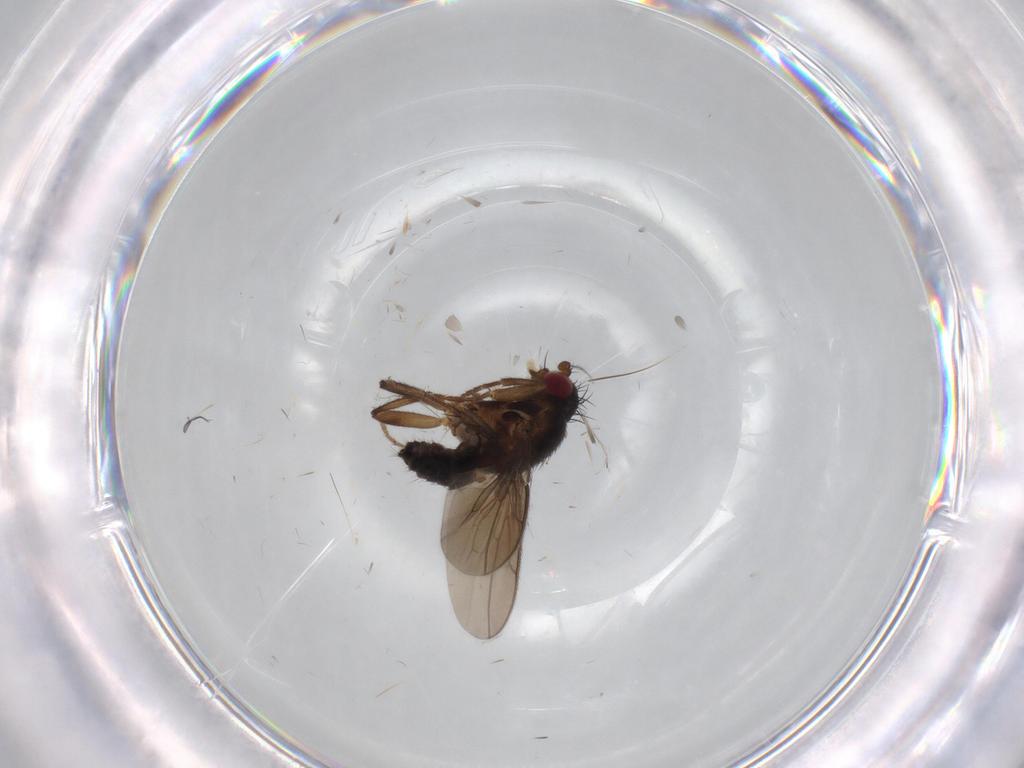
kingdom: Animalia
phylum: Arthropoda
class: Insecta
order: Diptera
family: Sphaeroceridae
